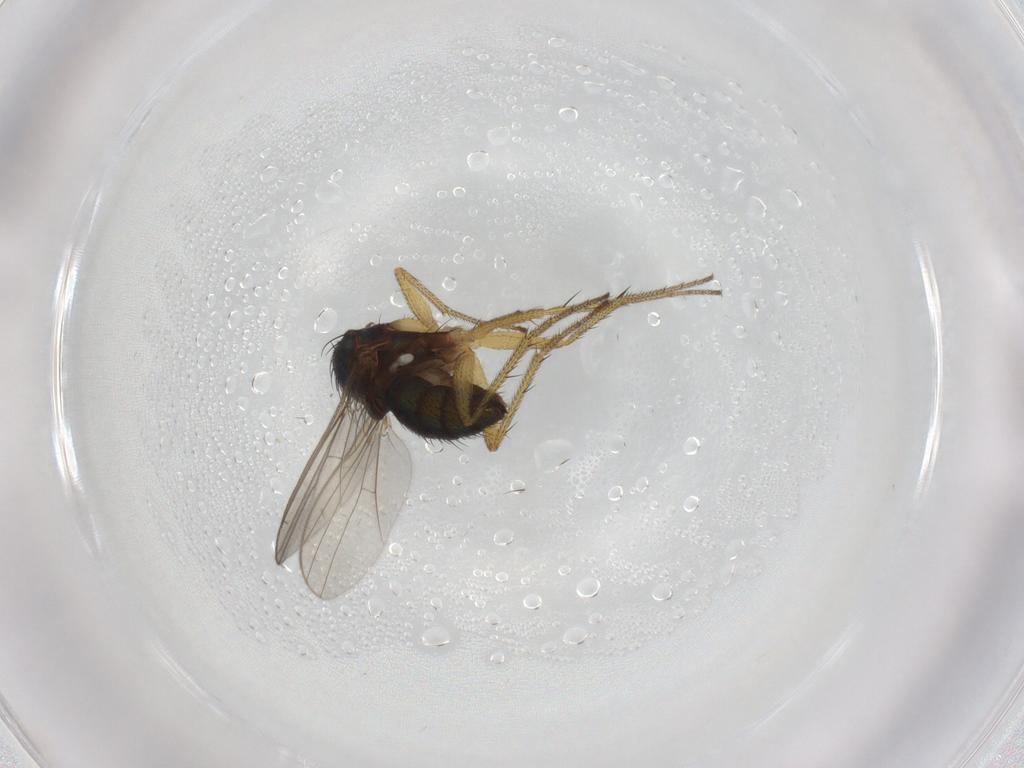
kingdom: Animalia
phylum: Arthropoda
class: Insecta
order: Diptera
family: Dolichopodidae
